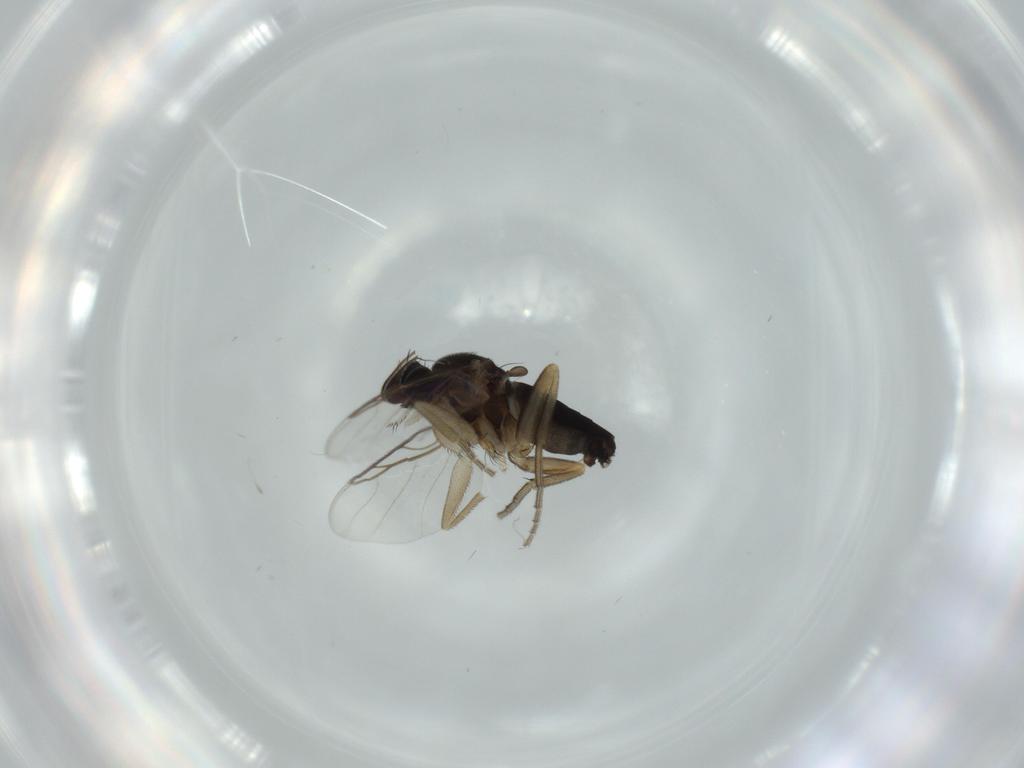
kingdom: Animalia
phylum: Arthropoda
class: Insecta
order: Diptera
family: Phoridae
